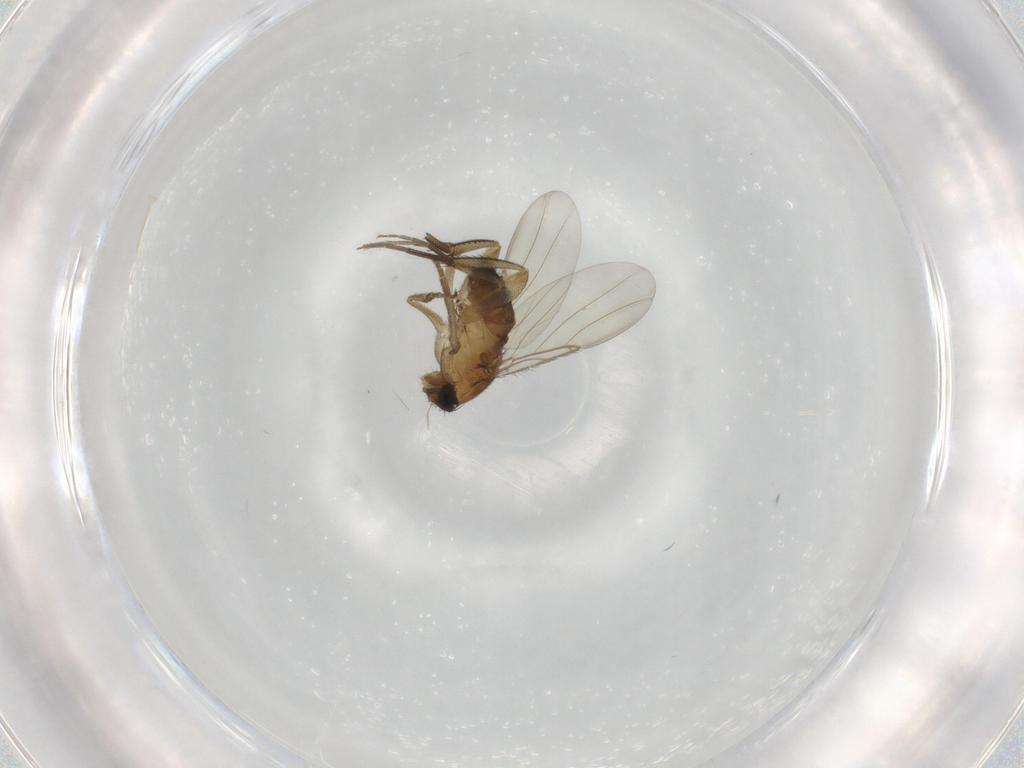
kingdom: Animalia
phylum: Arthropoda
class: Insecta
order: Diptera
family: Phoridae
